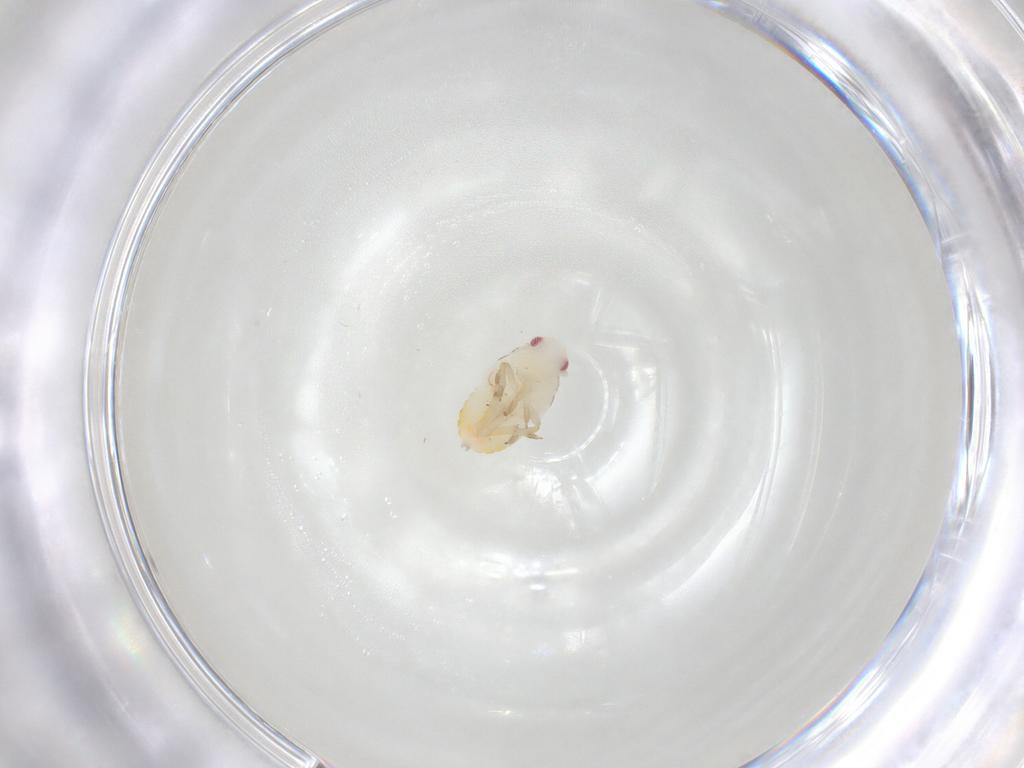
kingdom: Animalia
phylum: Arthropoda
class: Insecta
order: Hemiptera
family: Flatidae
